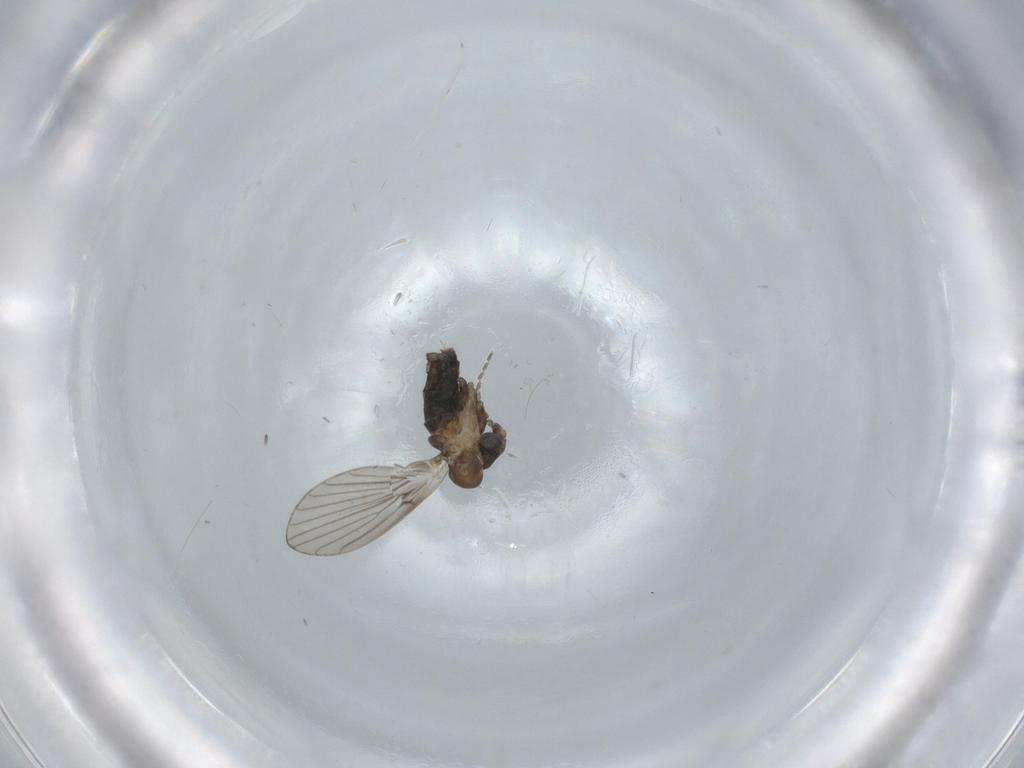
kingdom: Animalia
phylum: Arthropoda
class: Insecta
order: Diptera
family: Psychodidae
